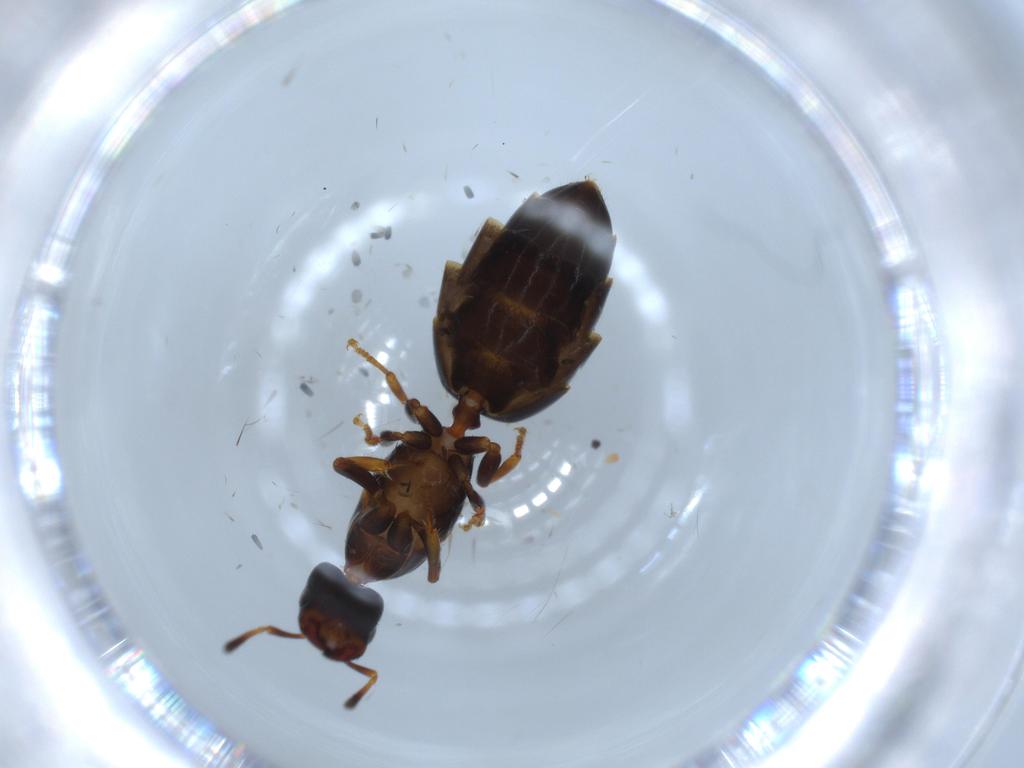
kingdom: Animalia
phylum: Arthropoda
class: Insecta
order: Hymenoptera
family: Formicidae
